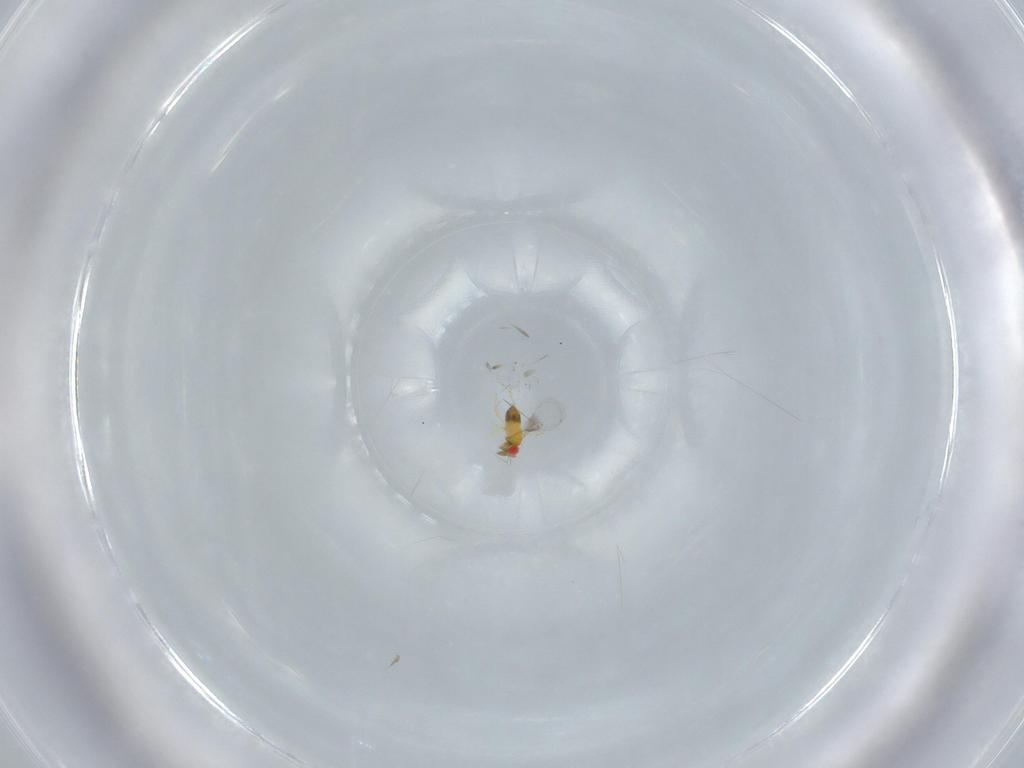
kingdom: Animalia
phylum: Arthropoda
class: Insecta
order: Hymenoptera
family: Trichogrammatidae
